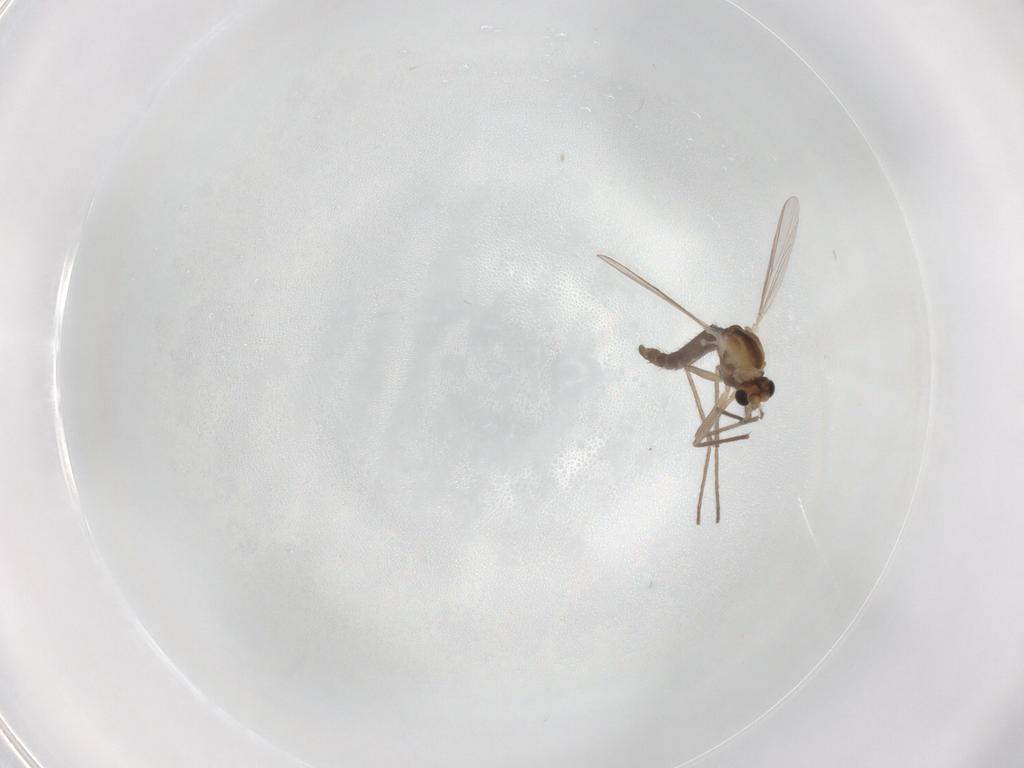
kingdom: Animalia
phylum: Arthropoda
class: Insecta
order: Diptera
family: Chironomidae
